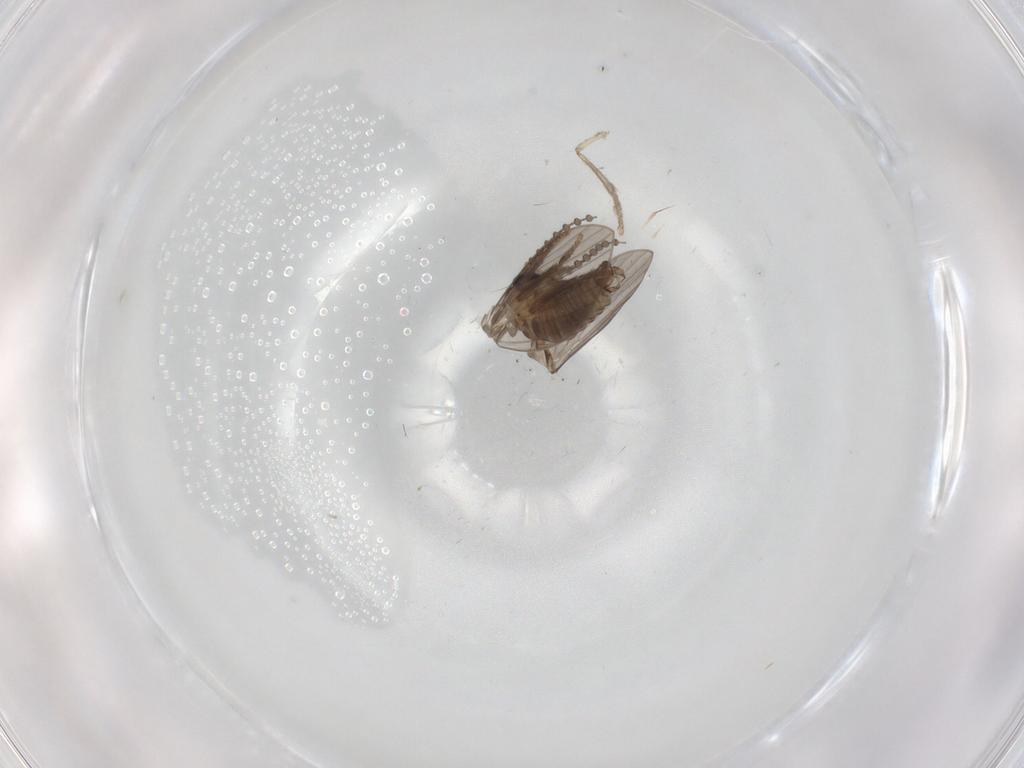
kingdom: Animalia
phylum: Arthropoda
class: Insecta
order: Diptera
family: Psychodidae
